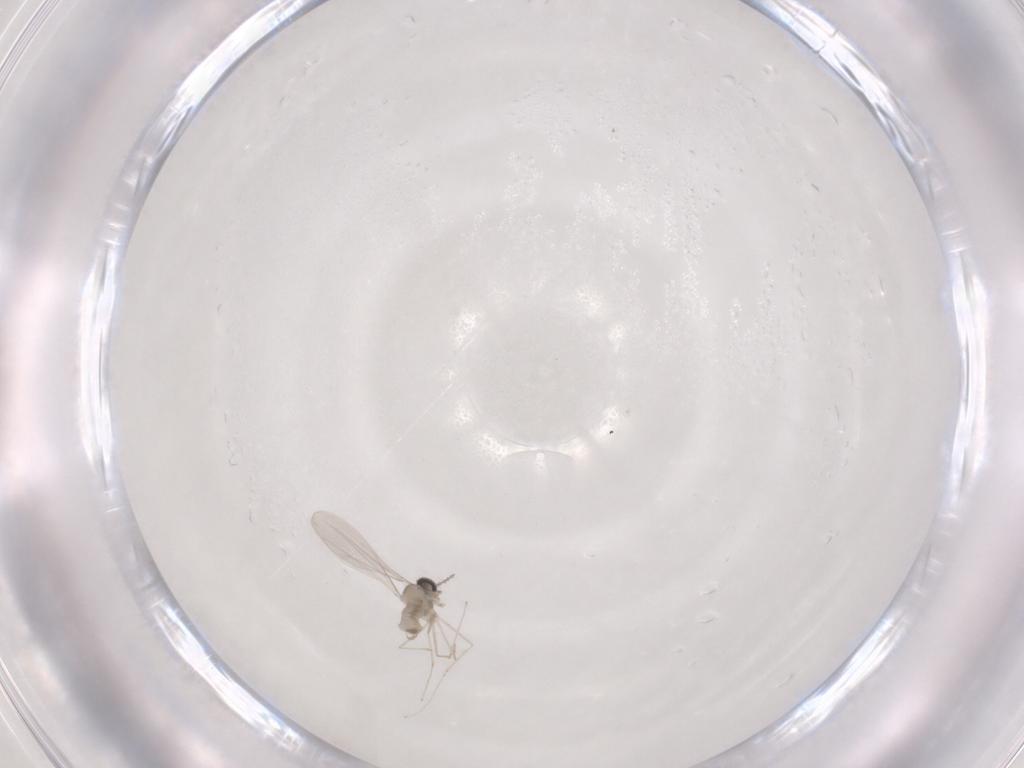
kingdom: Animalia
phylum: Arthropoda
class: Insecta
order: Diptera
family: Cecidomyiidae
